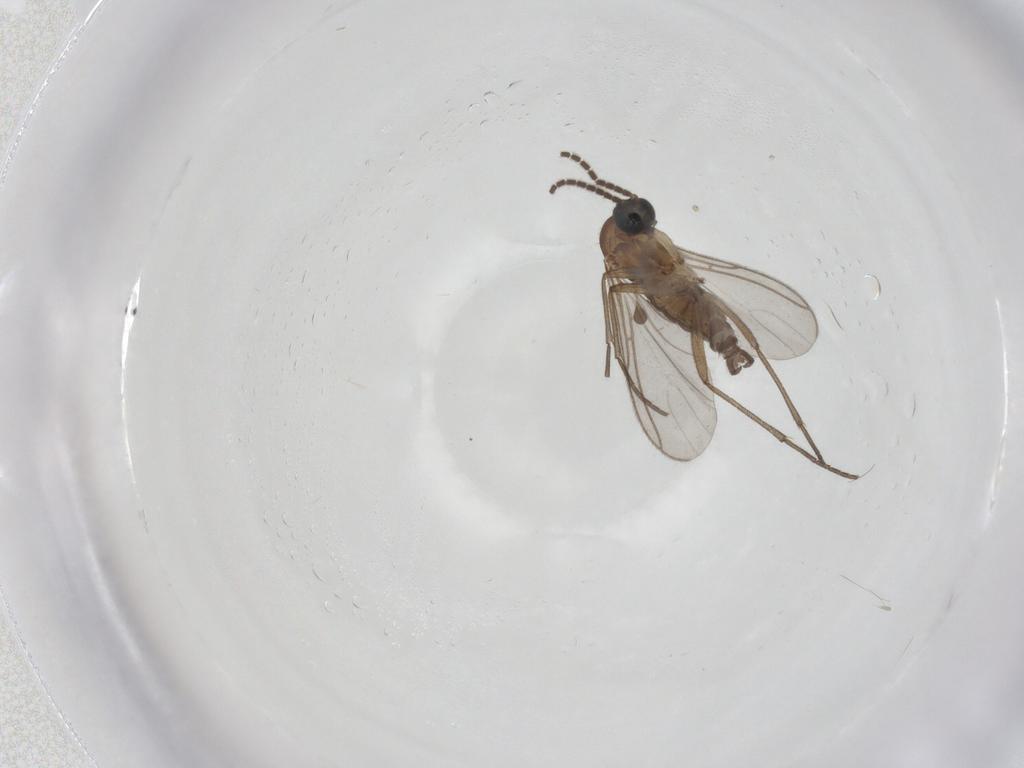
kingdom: Animalia
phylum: Arthropoda
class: Insecta
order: Diptera
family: Sciaridae
